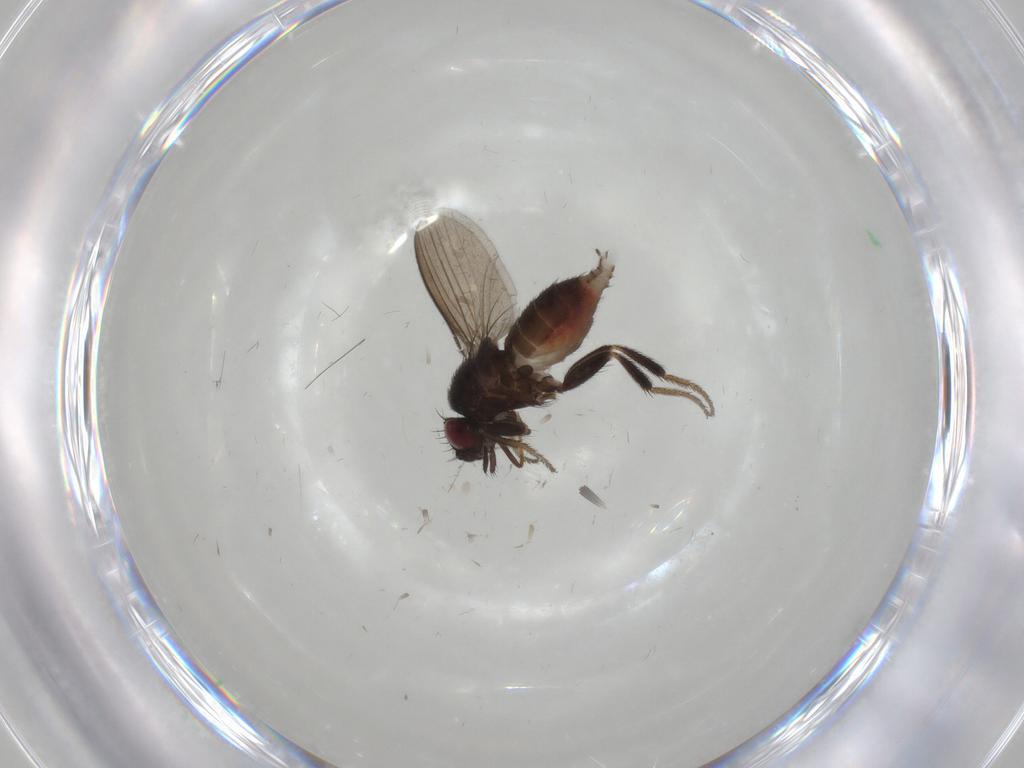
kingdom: Animalia
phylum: Arthropoda
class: Insecta
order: Diptera
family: Milichiidae
